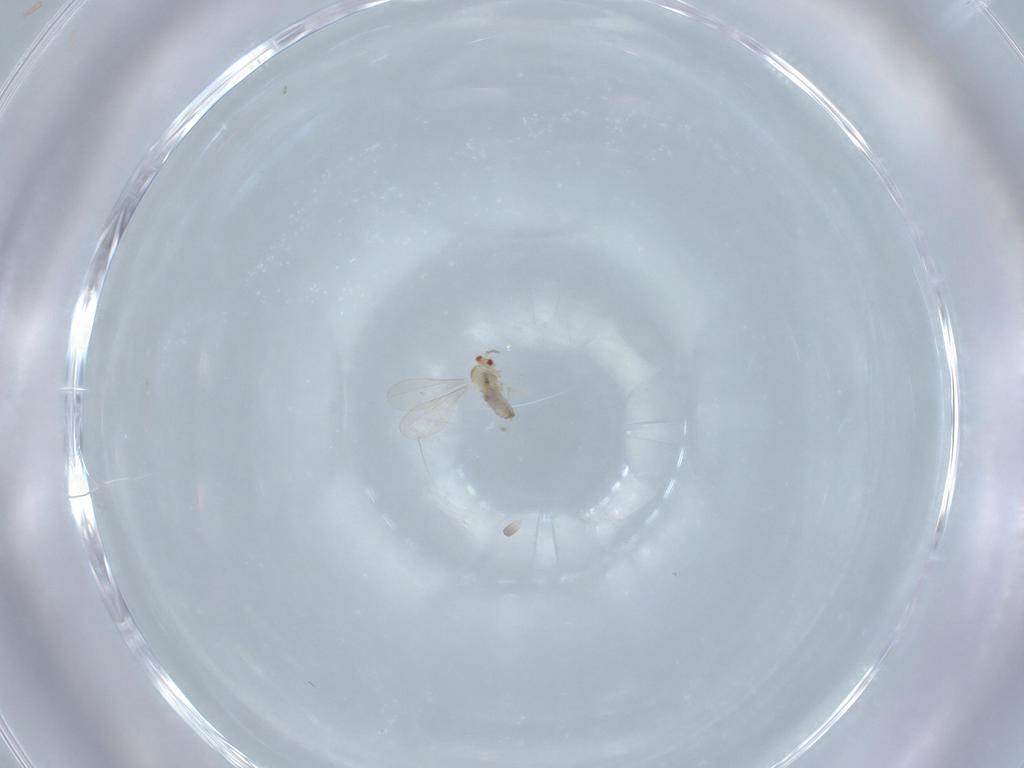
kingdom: Animalia
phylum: Arthropoda
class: Insecta
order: Diptera
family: Cecidomyiidae
